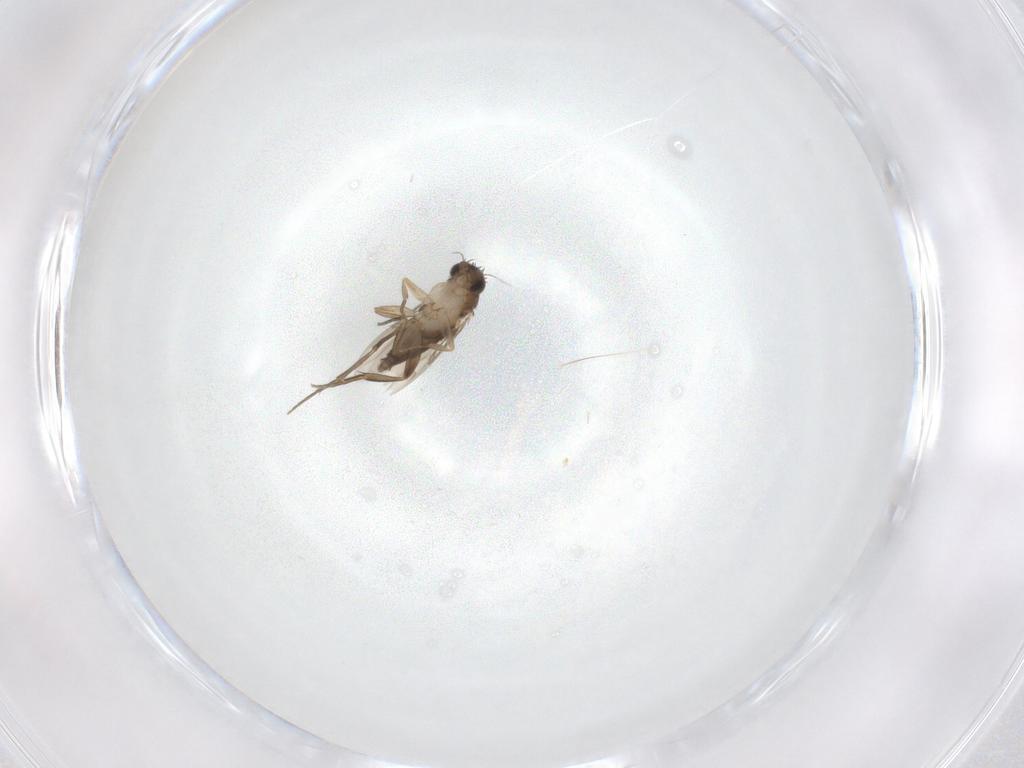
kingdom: Animalia
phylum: Arthropoda
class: Insecta
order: Diptera
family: Phoridae
